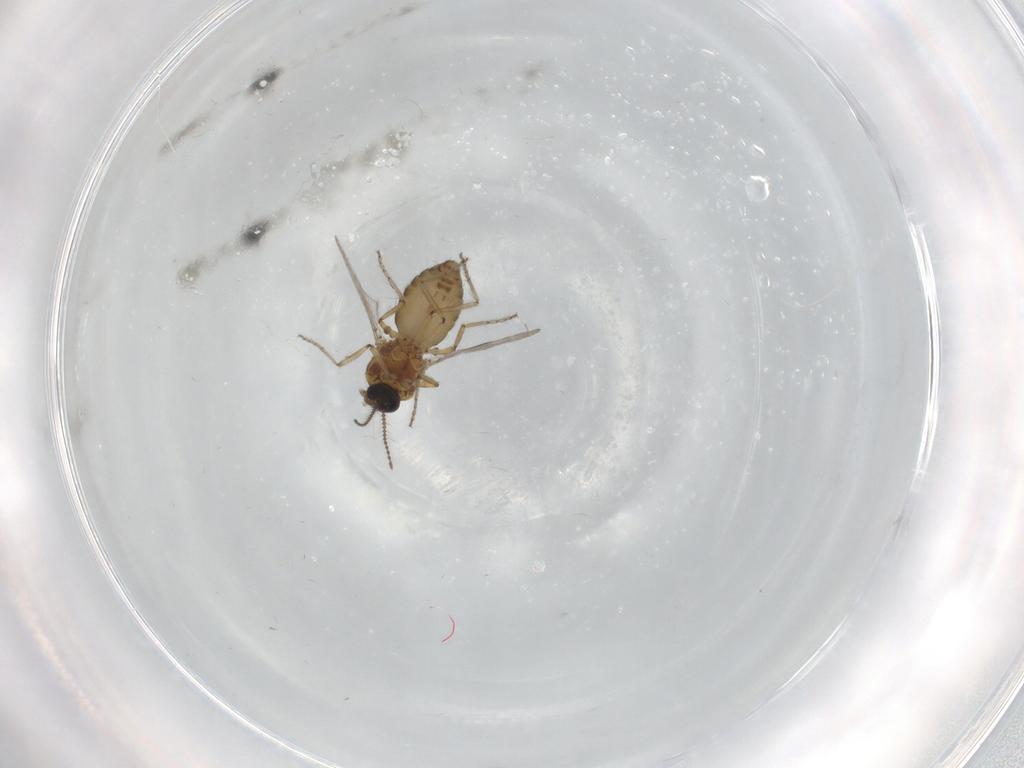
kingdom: Animalia
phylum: Arthropoda
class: Insecta
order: Diptera
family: Ceratopogonidae
